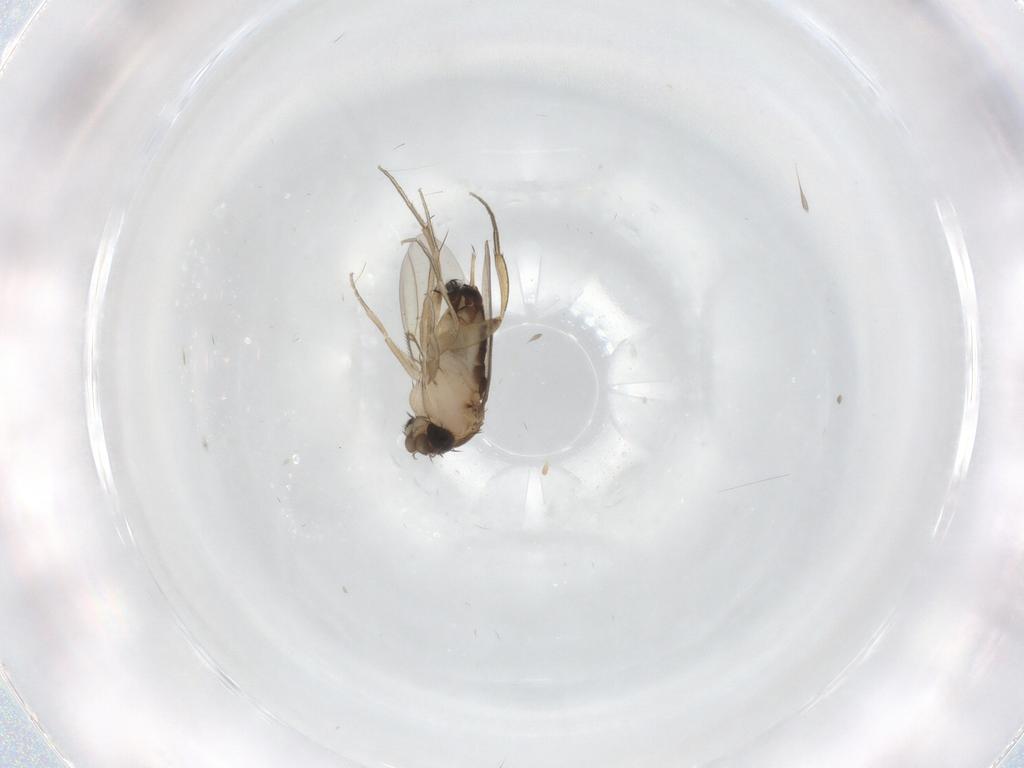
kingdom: Animalia
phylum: Arthropoda
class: Insecta
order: Diptera
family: Phoridae
